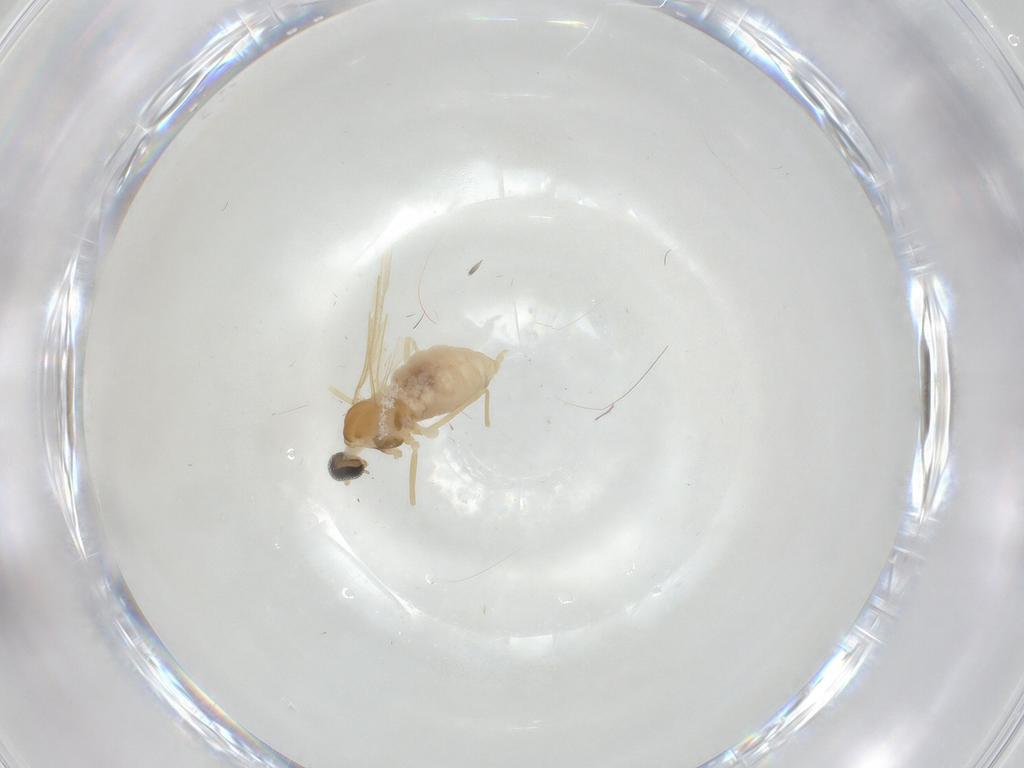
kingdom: Animalia
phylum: Arthropoda
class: Insecta
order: Diptera
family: Cecidomyiidae
